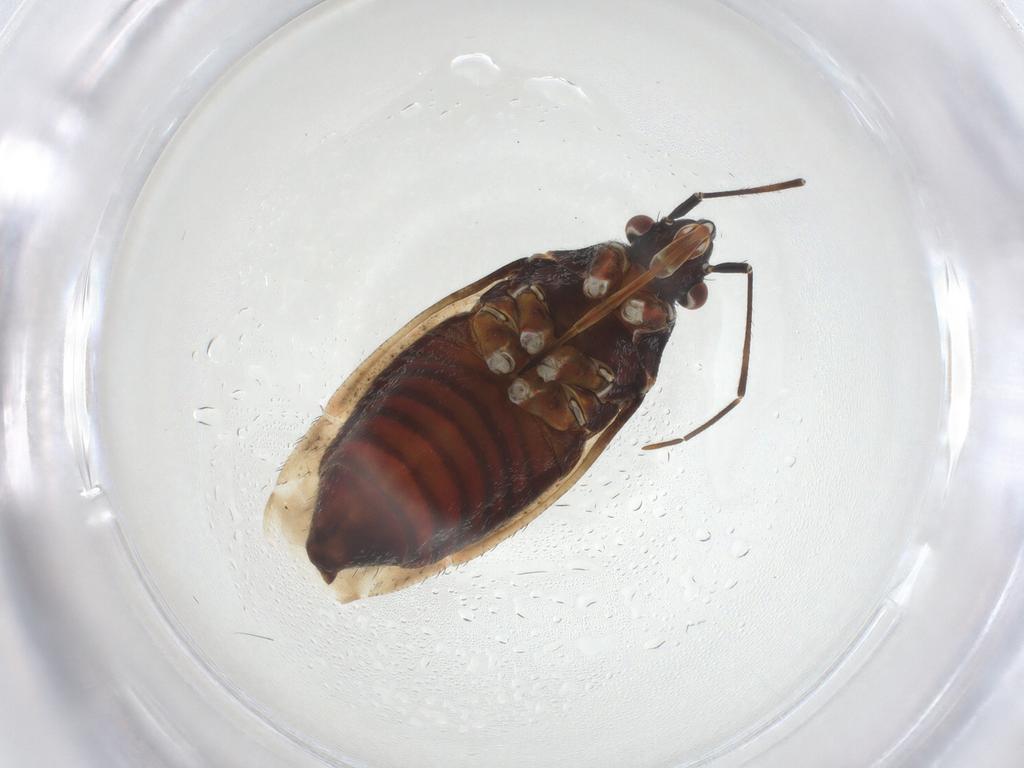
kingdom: Animalia
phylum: Arthropoda
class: Insecta
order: Hemiptera
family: Miridae
